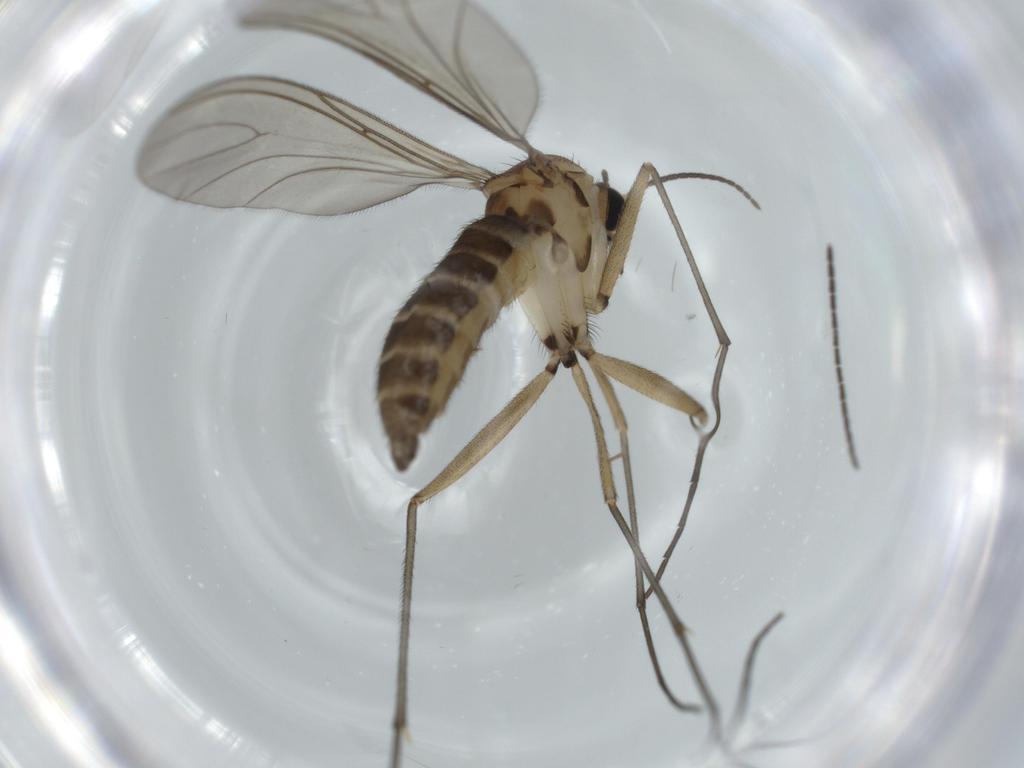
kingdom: Animalia
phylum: Arthropoda
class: Insecta
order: Diptera
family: Sciaridae
